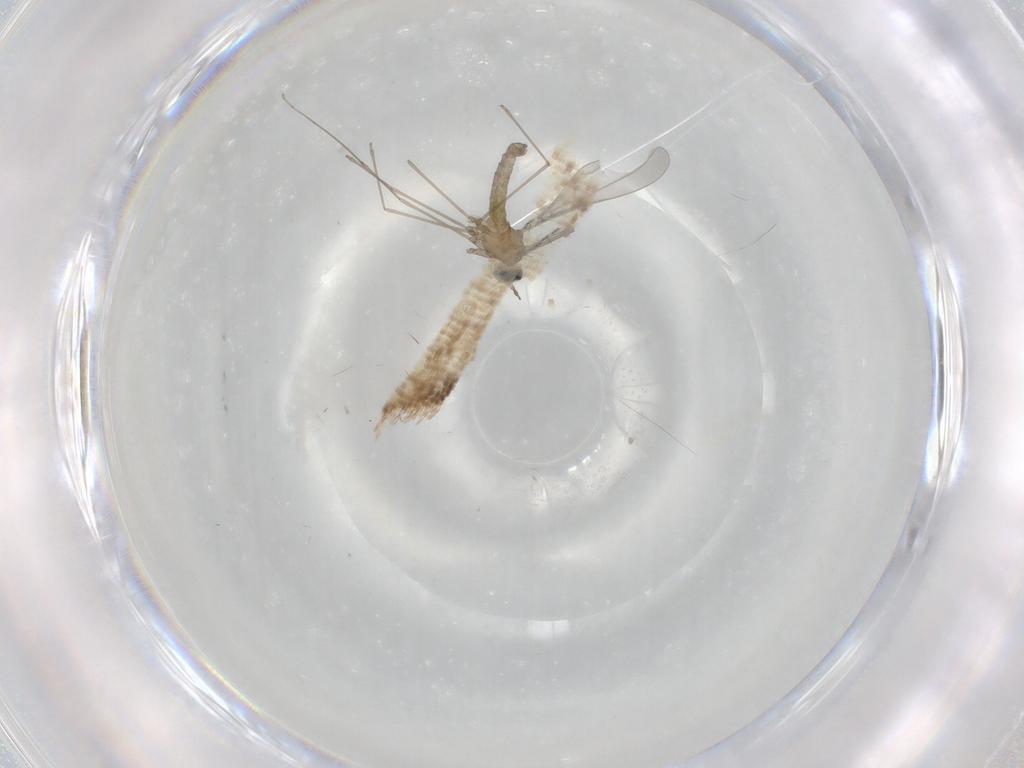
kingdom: Animalia
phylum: Arthropoda
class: Insecta
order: Diptera
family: Cecidomyiidae
